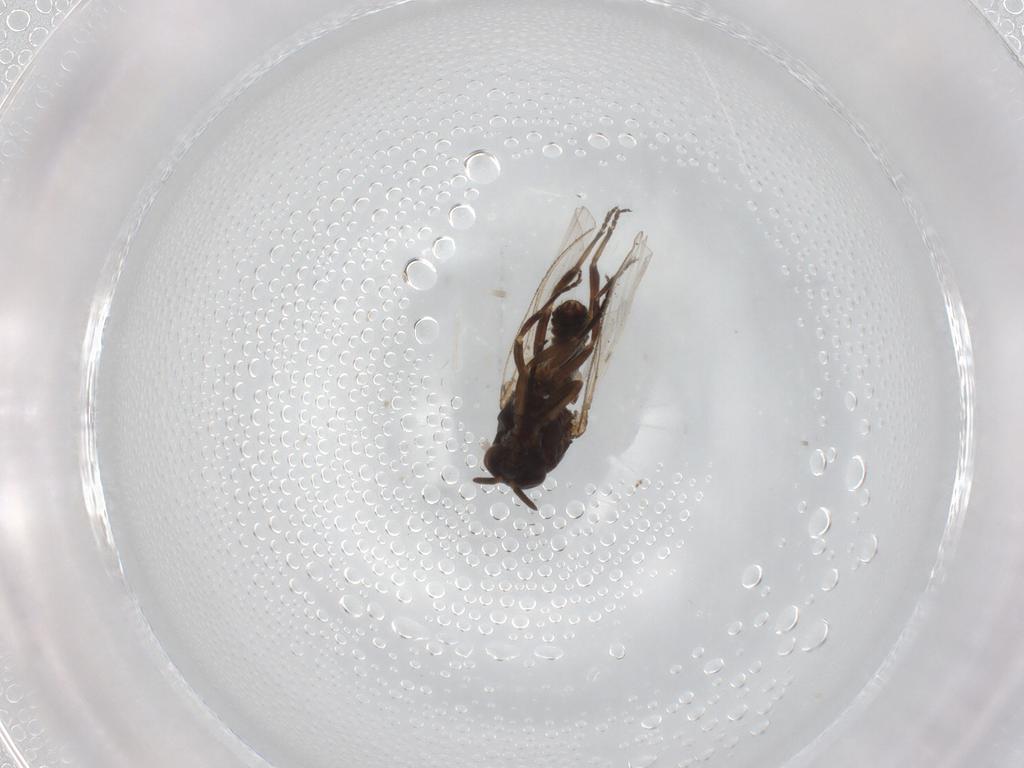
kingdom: Animalia
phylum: Arthropoda
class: Insecta
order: Diptera
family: Simuliidae
